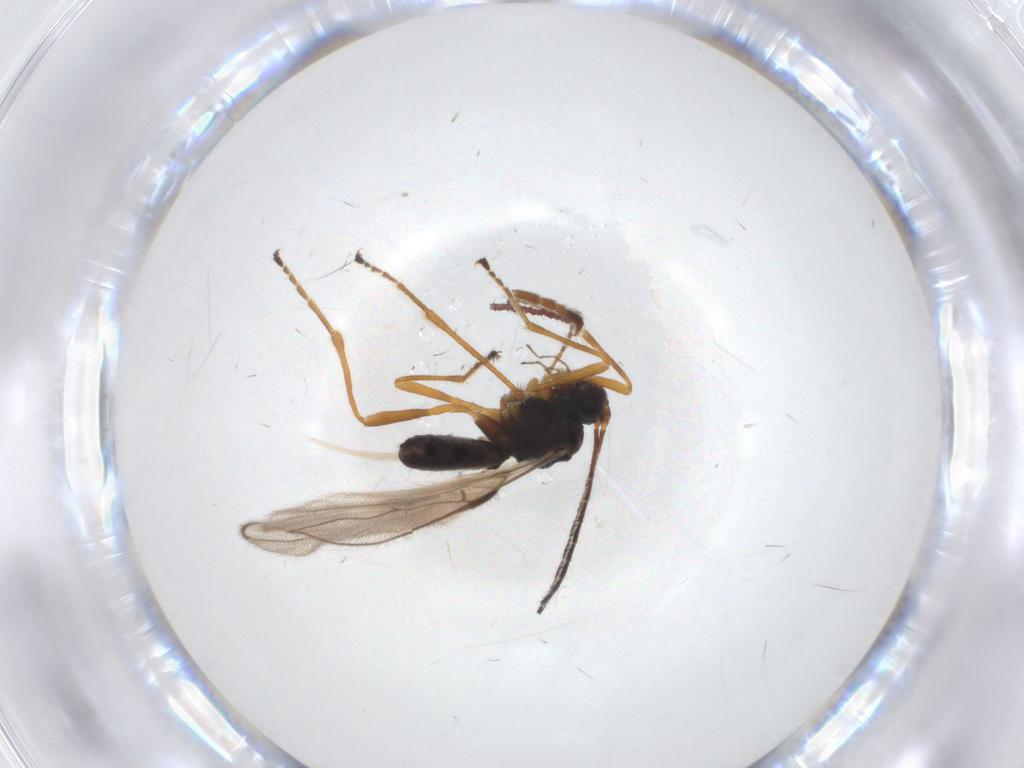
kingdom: Animalia
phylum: Arthropoda
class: Insecta
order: Hymenoptera
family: Braconidae
